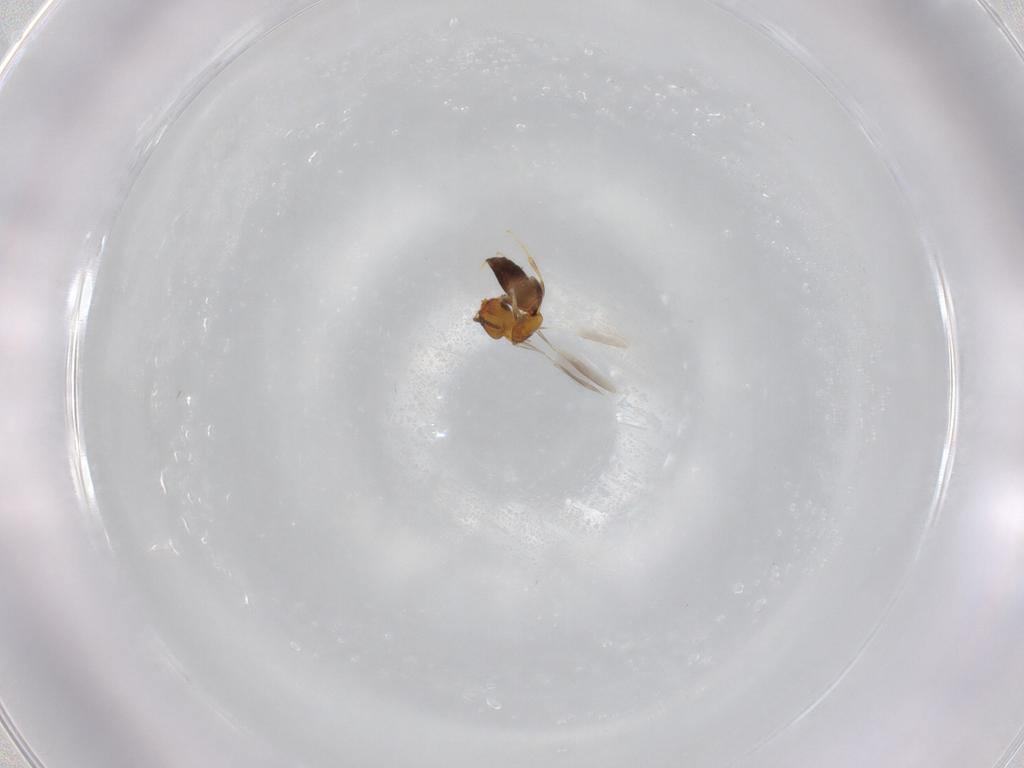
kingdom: Animalia
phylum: Arthropoda
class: Insecta
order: Hymenoptera
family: Bethylidae
